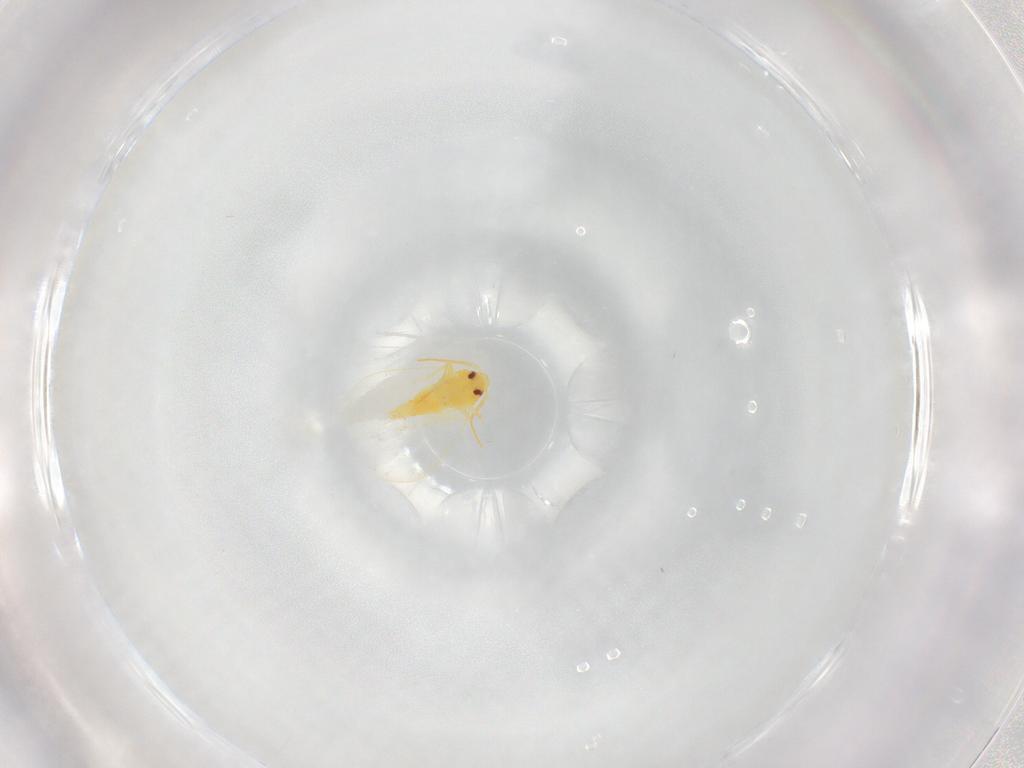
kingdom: Animalia
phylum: Arthropoda
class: Insecta
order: Hemiptera
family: Aleyrodidae
